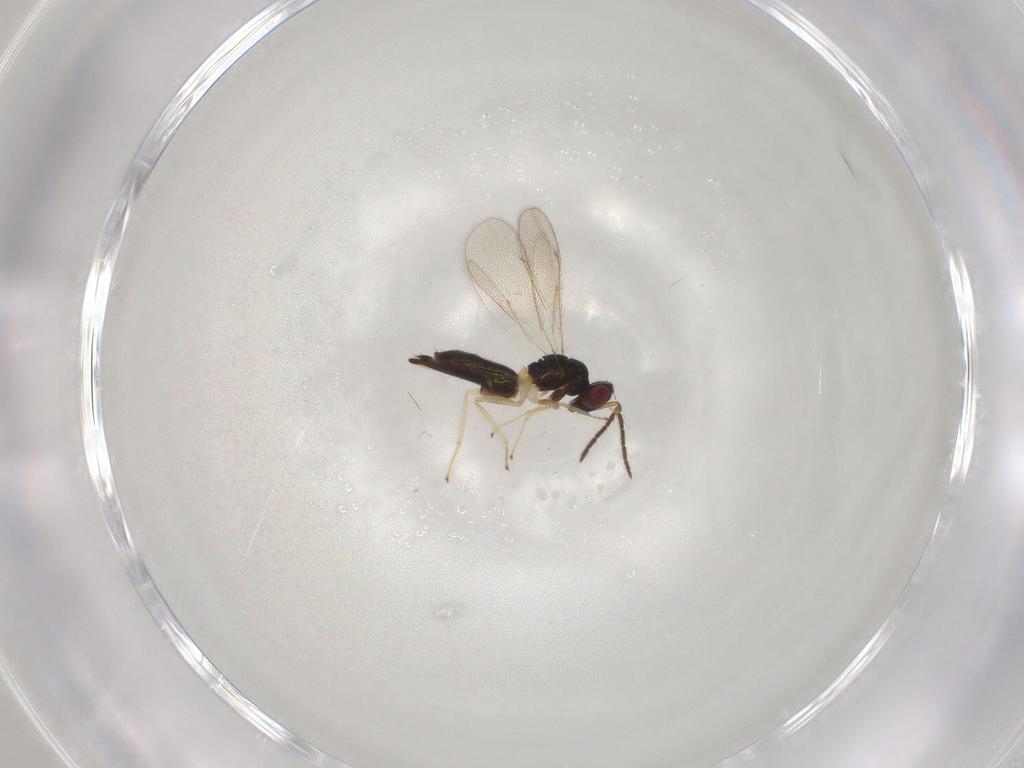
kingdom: Animalia
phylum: Arthropoda
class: Insecta
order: Hymenoptera
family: Eulophidae
